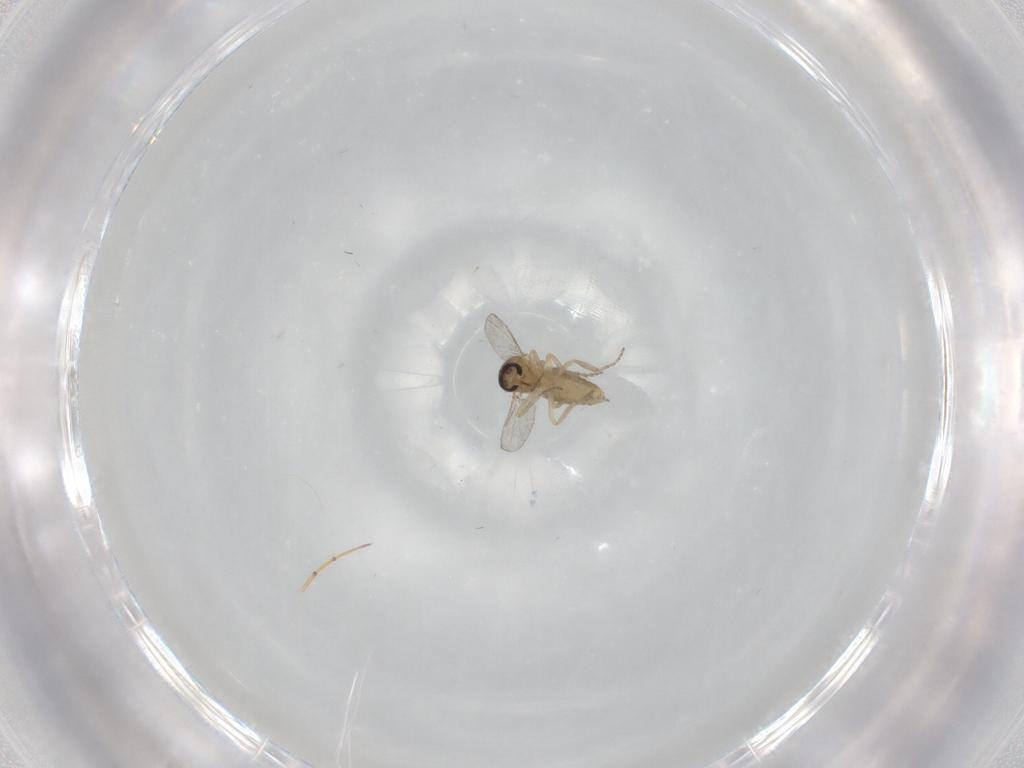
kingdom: Animalia
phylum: Arthropoda
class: Insecta
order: Diptera
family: Ceratopogonidae
